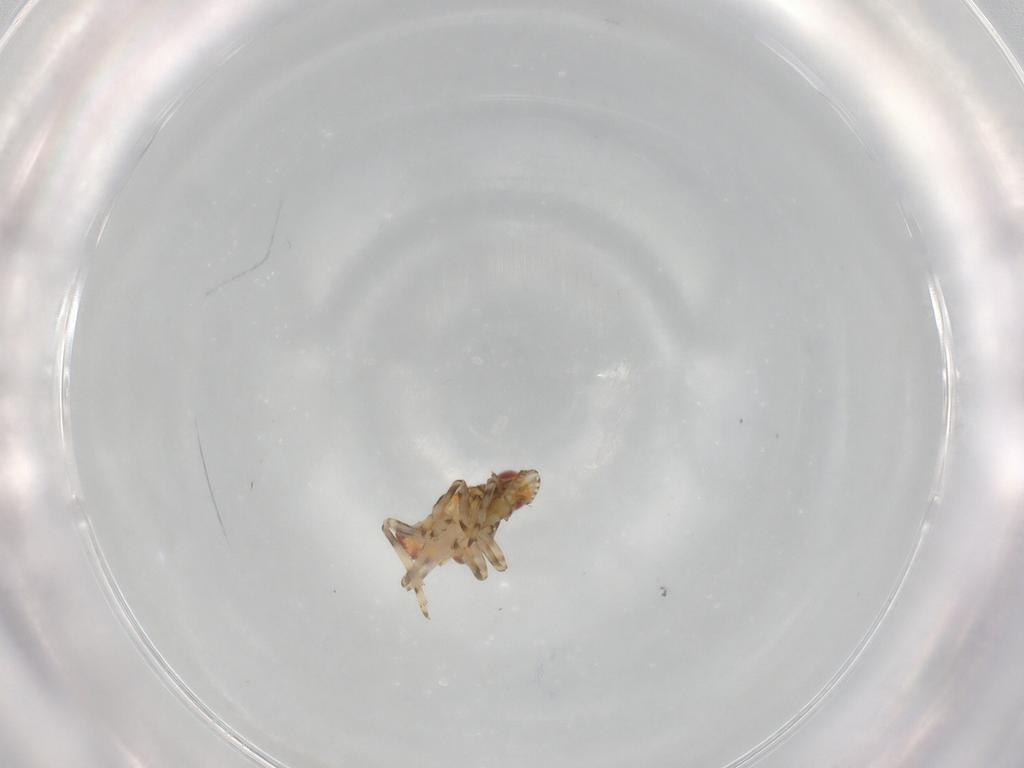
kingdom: Animalia
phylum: Arthropoda
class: Insecta
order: Hemiptera
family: Tropiduchidae
